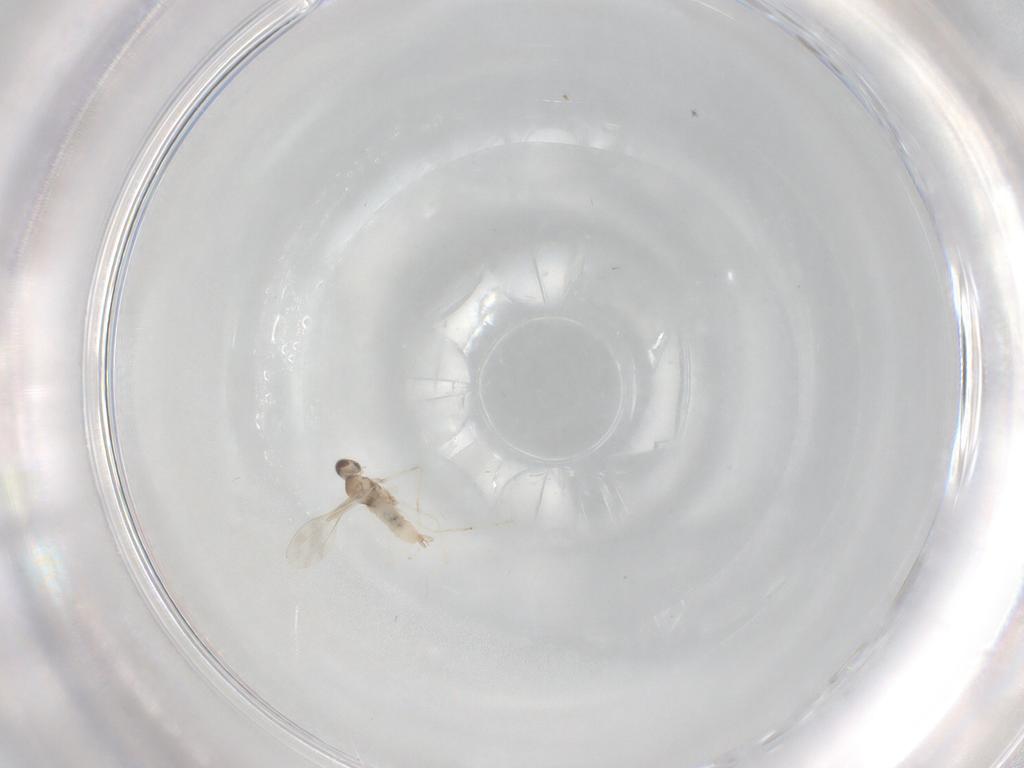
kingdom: Animalia
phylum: Arthropoda
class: Insecta
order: Diptera
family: Cecidomyiidae
